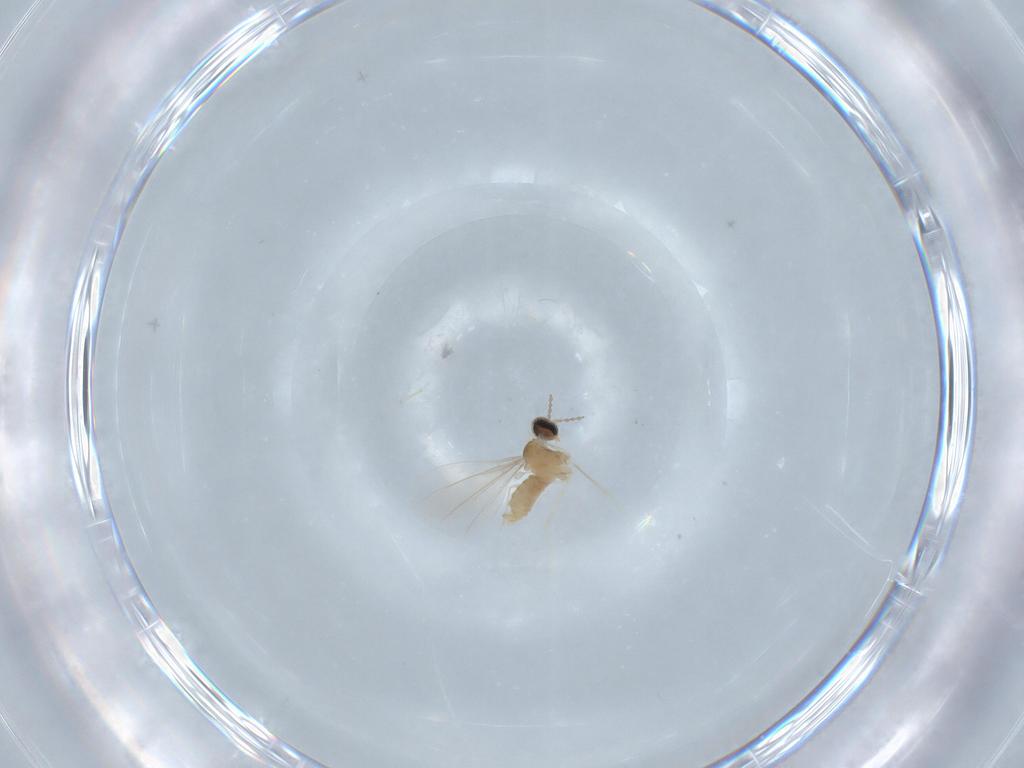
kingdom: Animalia
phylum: Arthropoda
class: Insecta
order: Diptera
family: Cecidomyiidae
